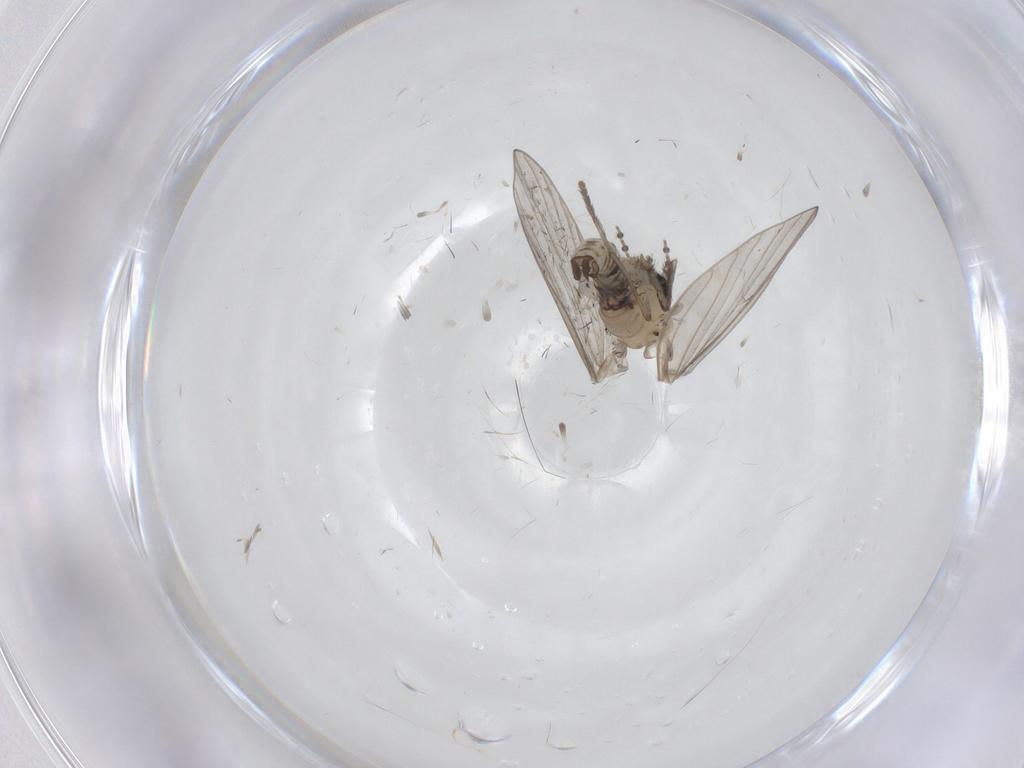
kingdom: Animalia
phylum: Arthropoda
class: Insecta
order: Diptera
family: Psychodidae
